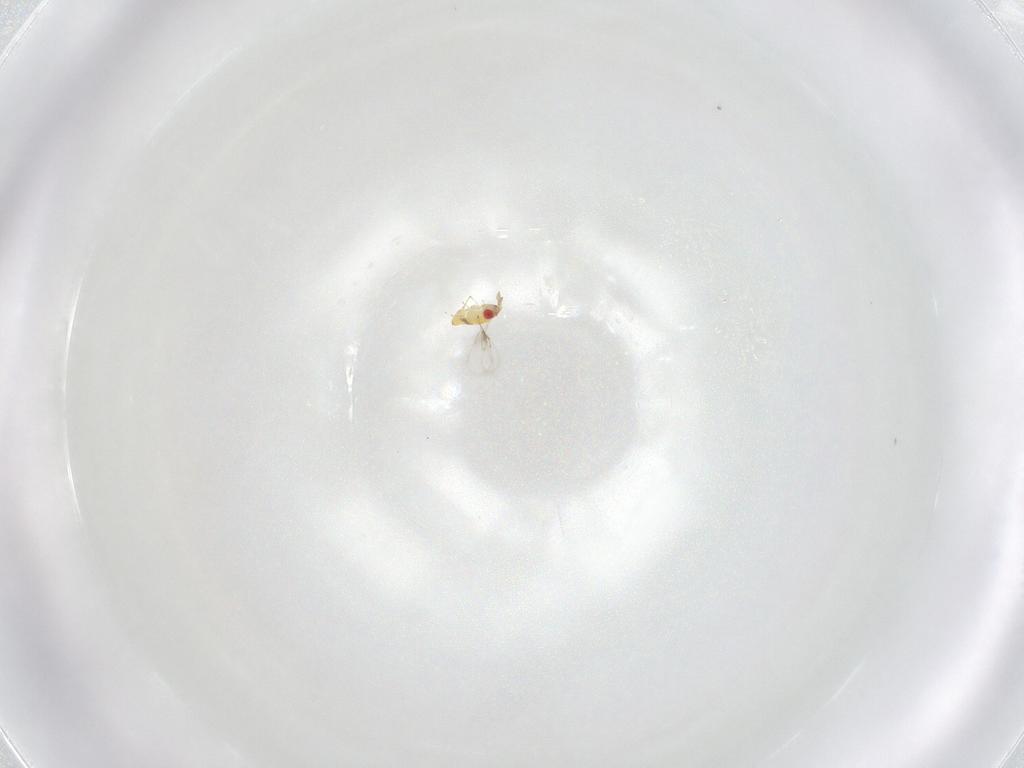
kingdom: Animalia
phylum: Arthropoda
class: Insecta
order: Hymenoptera
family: Trichogrammatidae
